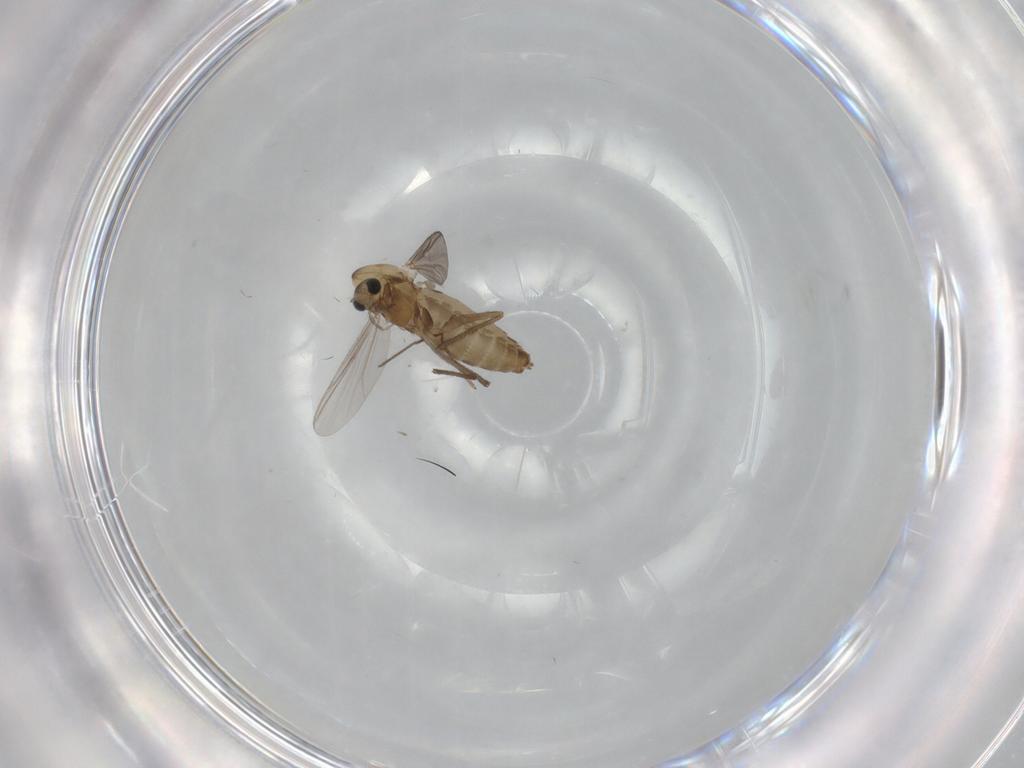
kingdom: Animalia
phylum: Arthropoda
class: Insecta
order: Diptera
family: Chironomidae
